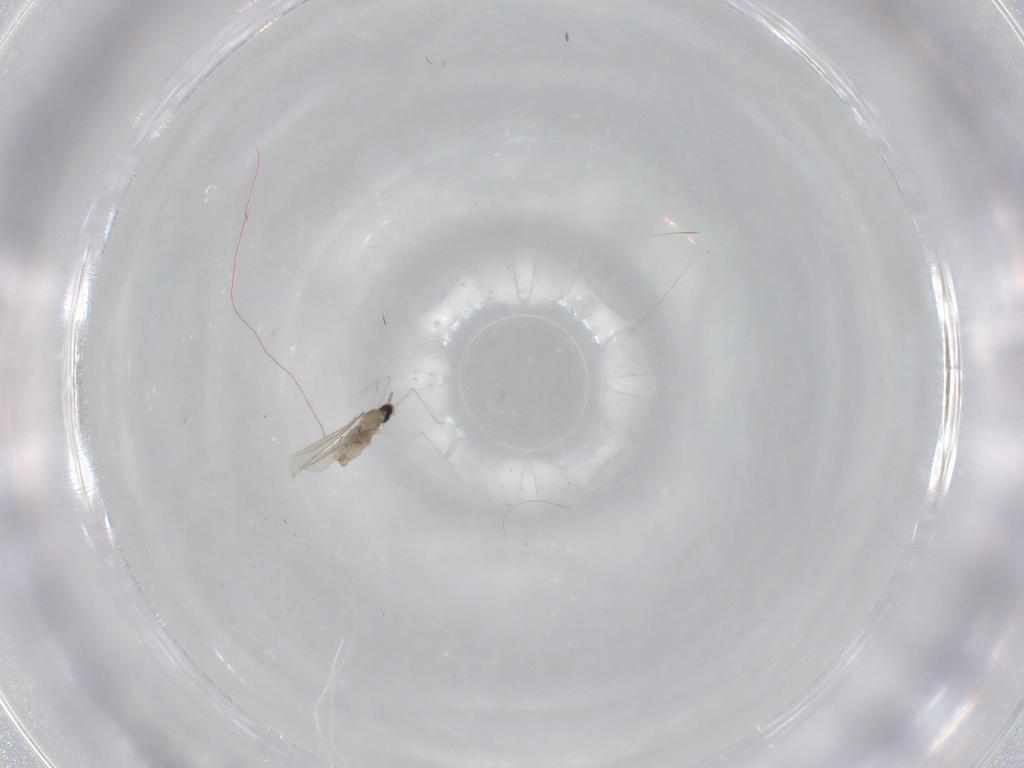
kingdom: Animalia
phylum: Arthropoda
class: Insecta
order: Diptera
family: Cecidomyiidae
